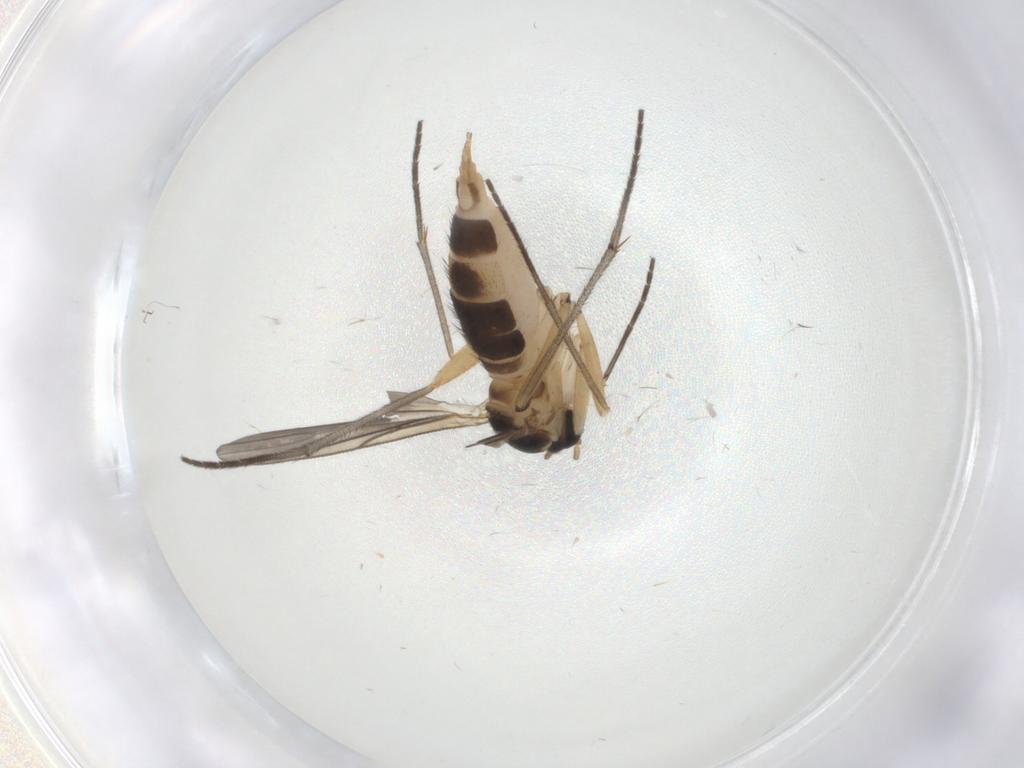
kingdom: Animalia
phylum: Arthropoda
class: Insecta
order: Diptera
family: Sciaridae
